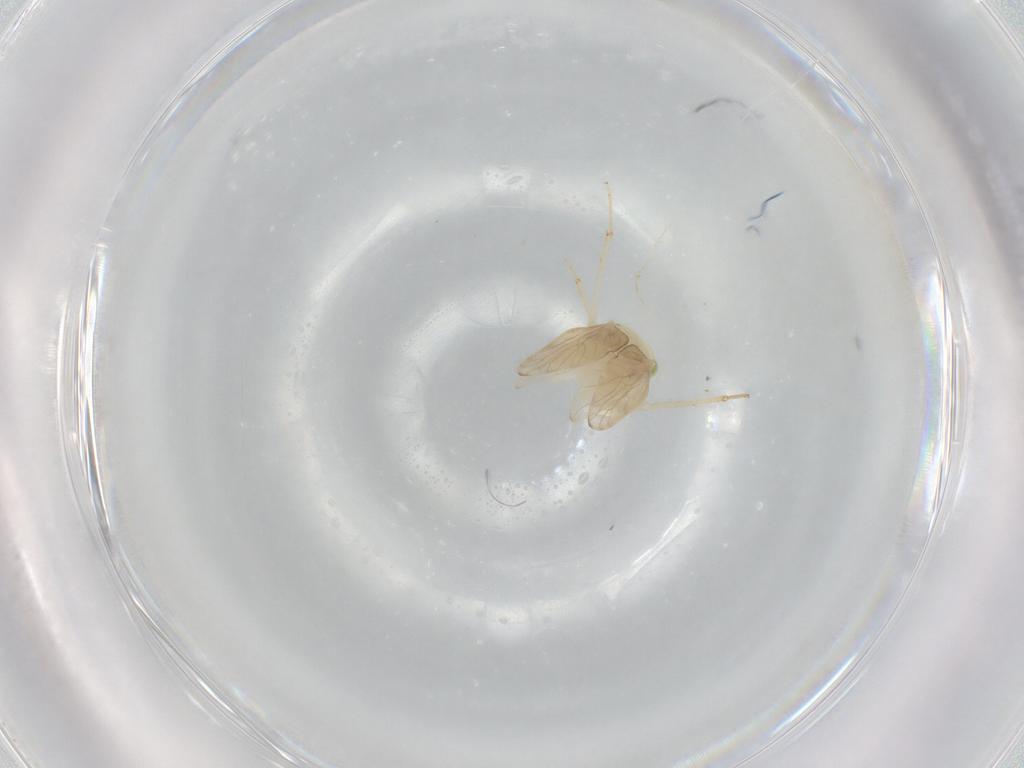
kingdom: Animalia
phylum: Arthropoda
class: Insecta
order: Psocodea
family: Lepidopsocidae
